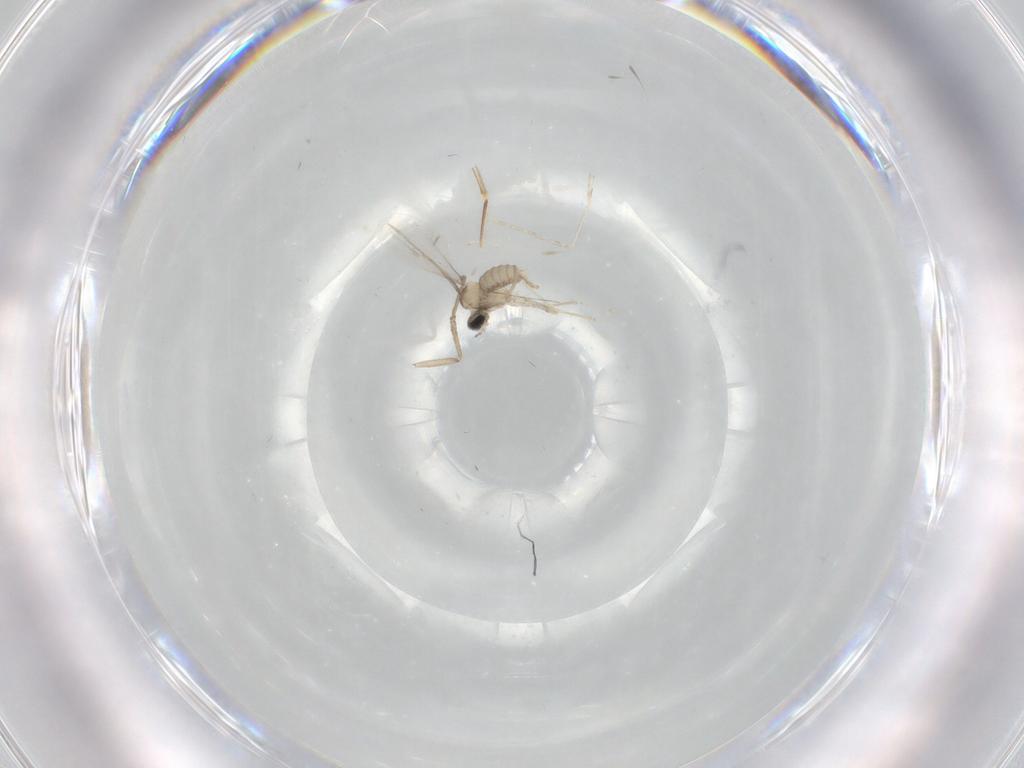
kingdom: Animalia
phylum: Arthropoda
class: Insecta
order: Diptera
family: Cecidomyiidae
